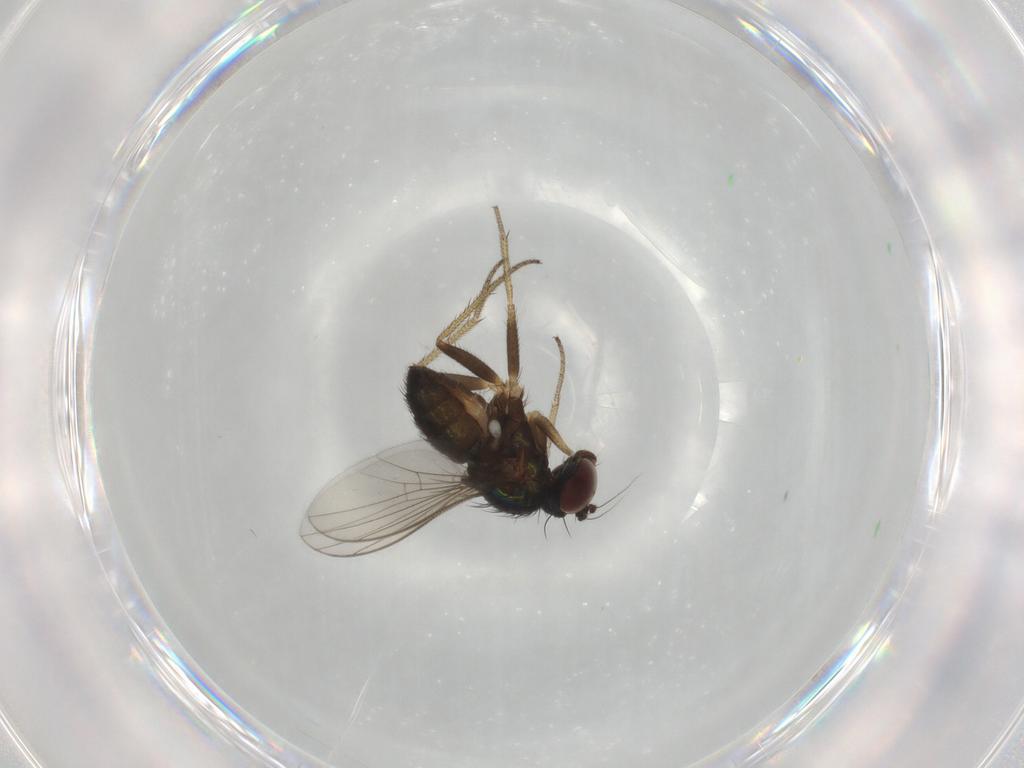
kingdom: Animalia
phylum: Arthropoda
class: Insecta
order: Diptera
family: Dolichopodidae
